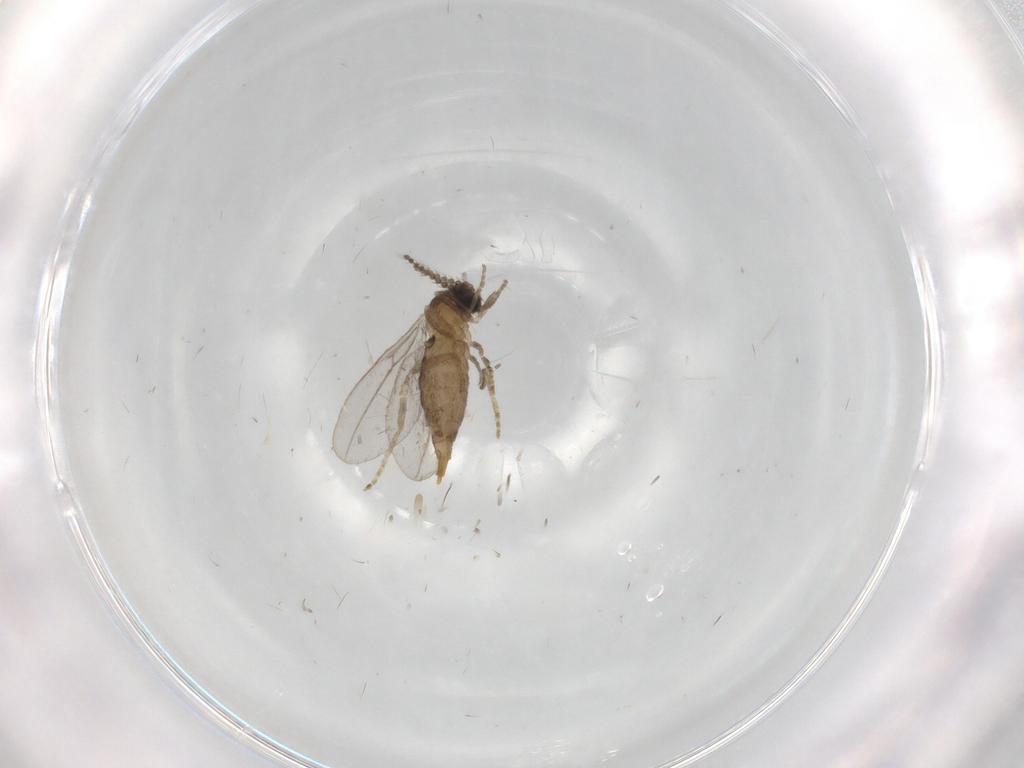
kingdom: Animalia
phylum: Arthropoda
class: Insecta
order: Diptera
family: Cecidomyiidae
